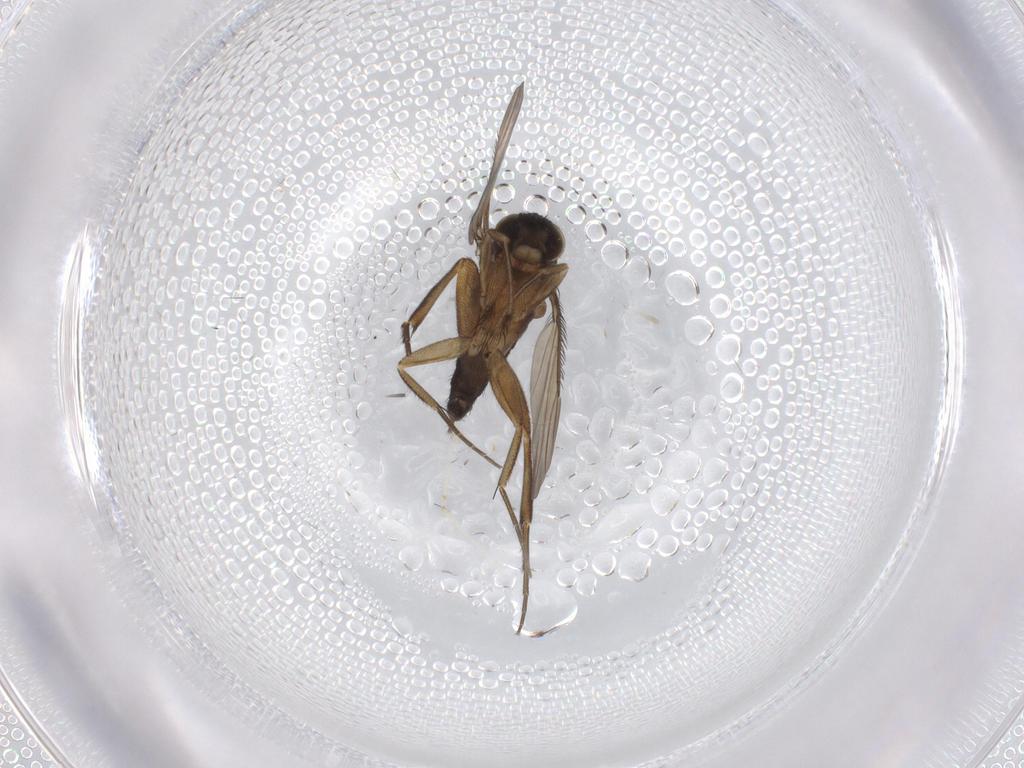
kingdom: Animalia
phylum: Arthropoda
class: Insecta
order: Diptera
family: Phoridae
